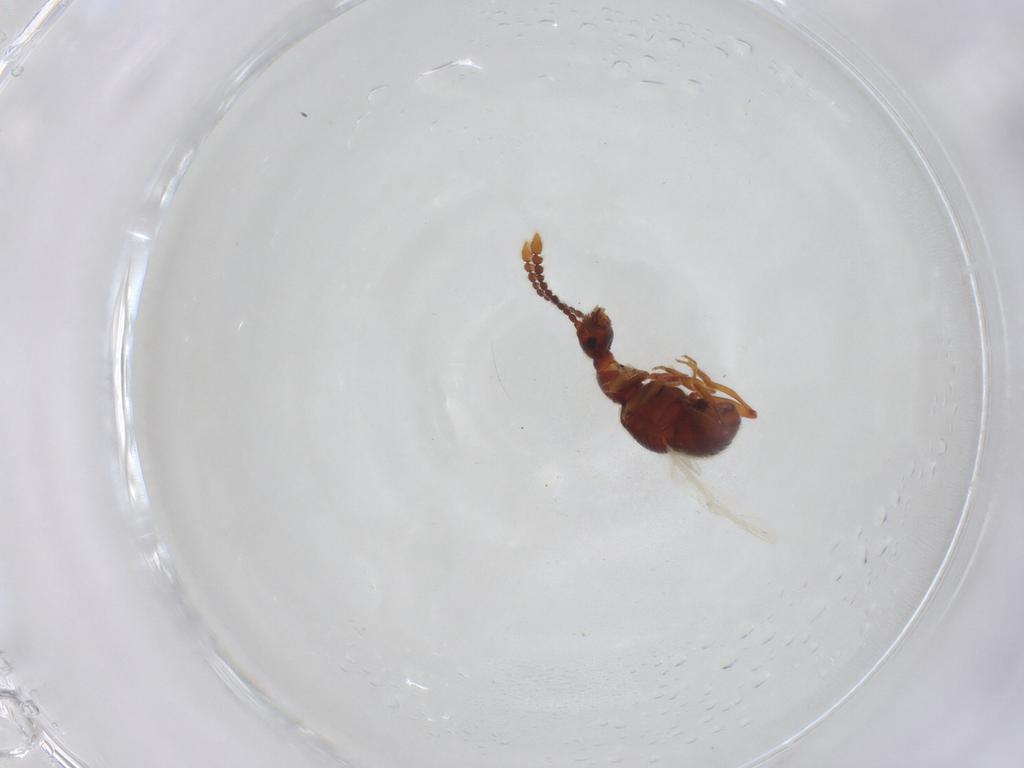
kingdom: Animalia
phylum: Arthropoda
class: Insecta
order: Coleoptera
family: Staphylinidae
